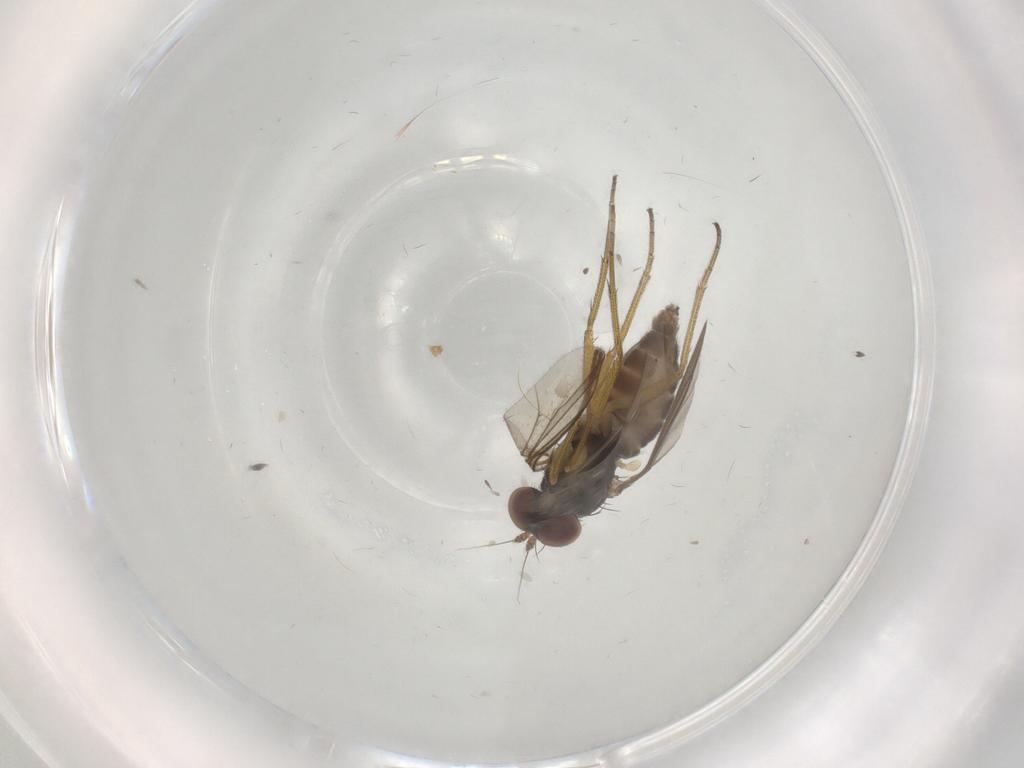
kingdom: Animalia
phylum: Arthropoda
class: Insecta
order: Diptera
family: Dolichopodidae
